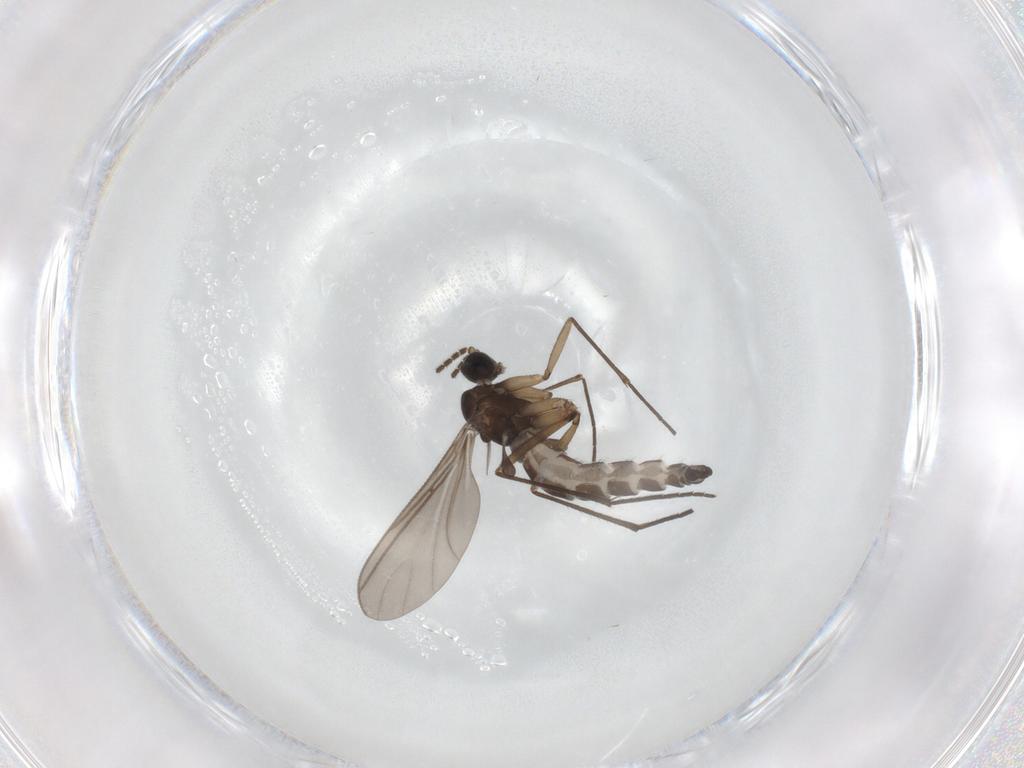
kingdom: Animalia
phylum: Arthropoda
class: Insecta
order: Diptera
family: Sciaridae
